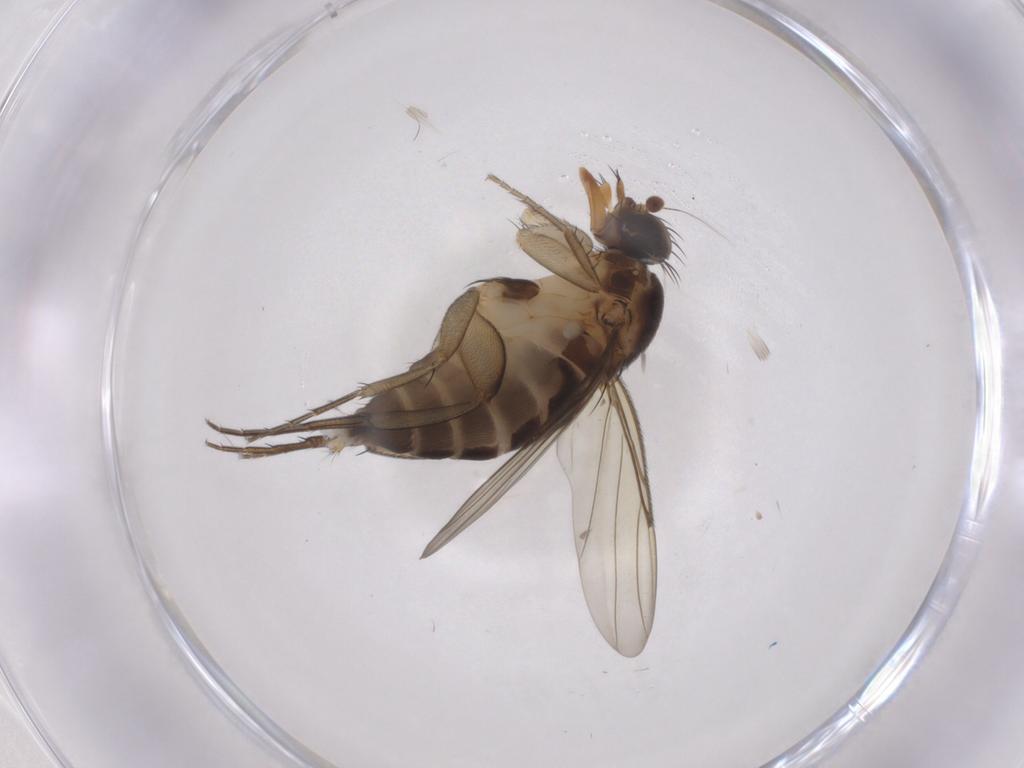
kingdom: Animalia
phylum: Arthropoda
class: Insecta
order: Diptera
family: Phoridae
